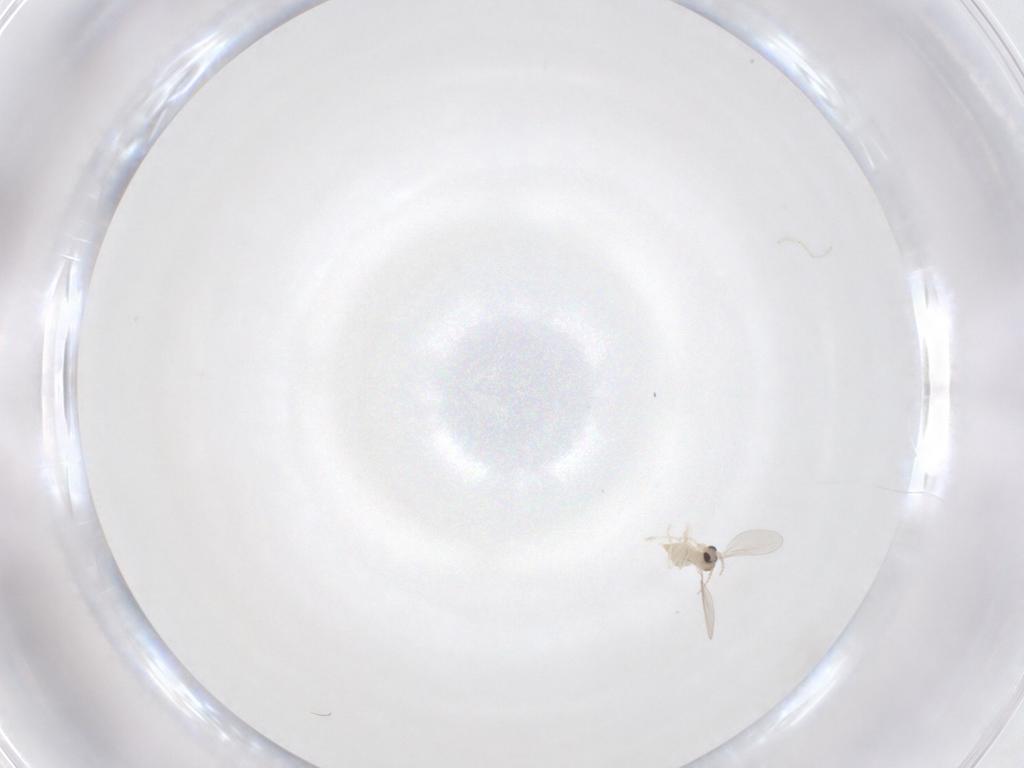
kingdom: Animalia
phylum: Arthropoda
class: Insecta
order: Diptera
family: Cecidomyiidae
